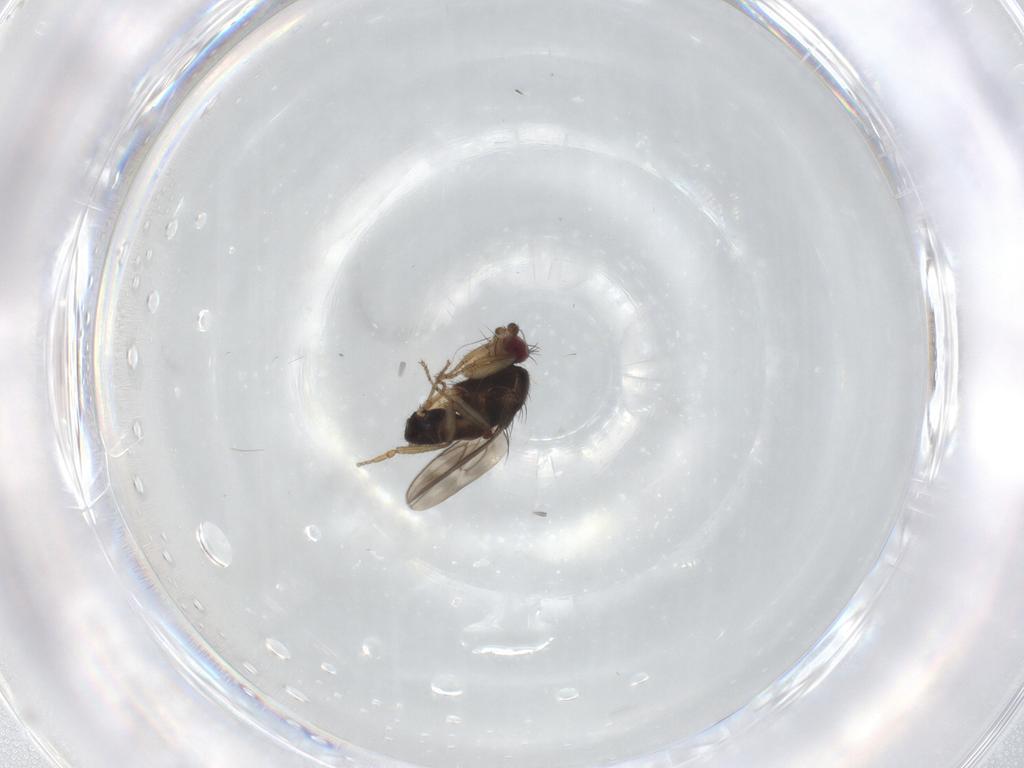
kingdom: Animalia
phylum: Arthropoda
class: Insecta
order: Diptera
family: Sphaeroceridae
